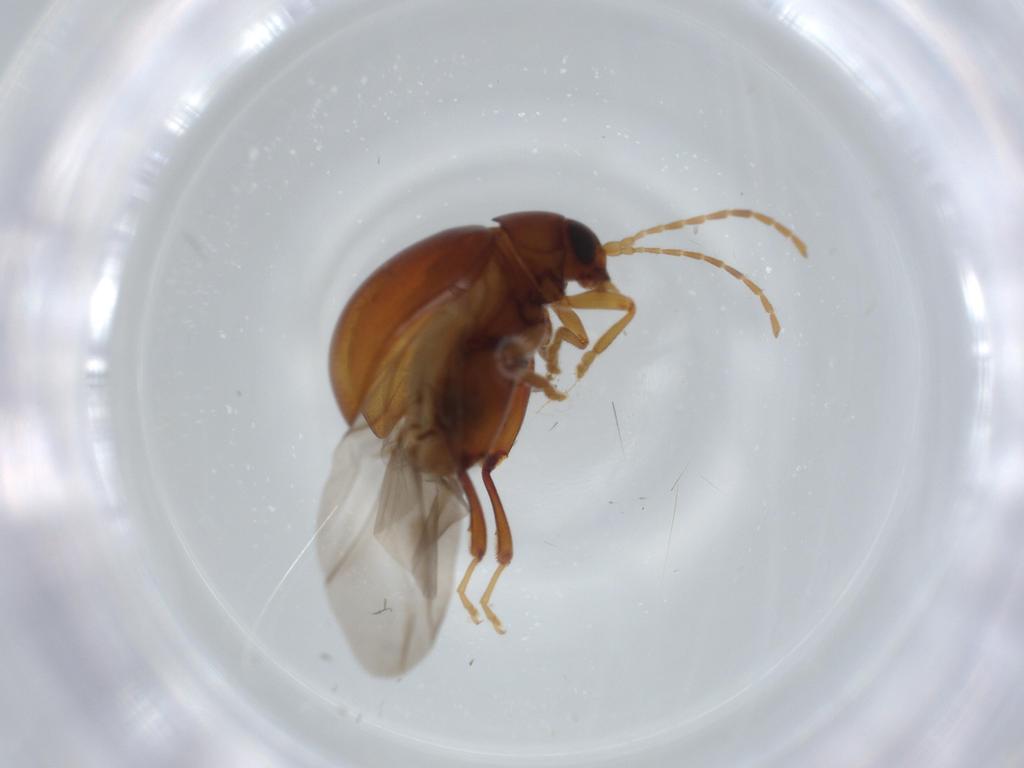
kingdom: Animalia
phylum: Arthropoda
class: Insecta
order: Coleoptera
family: Chrysomelidae
